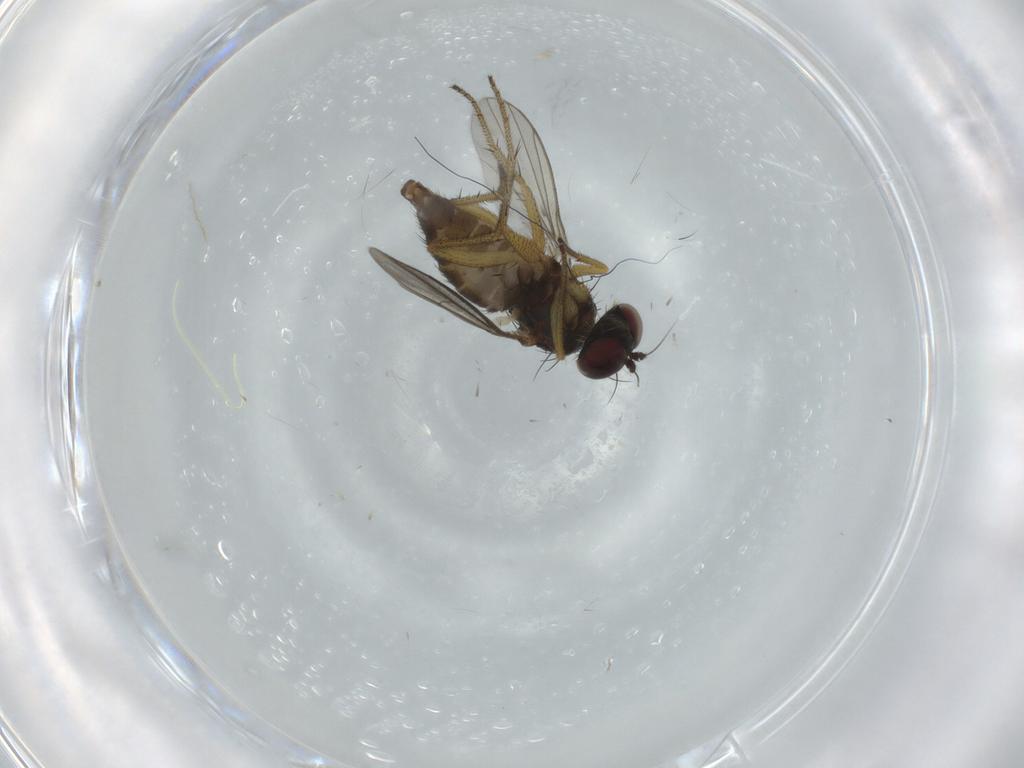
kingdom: Animalia
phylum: Arthropoda
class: Insecta
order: Diptera
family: Dolichopodidae
